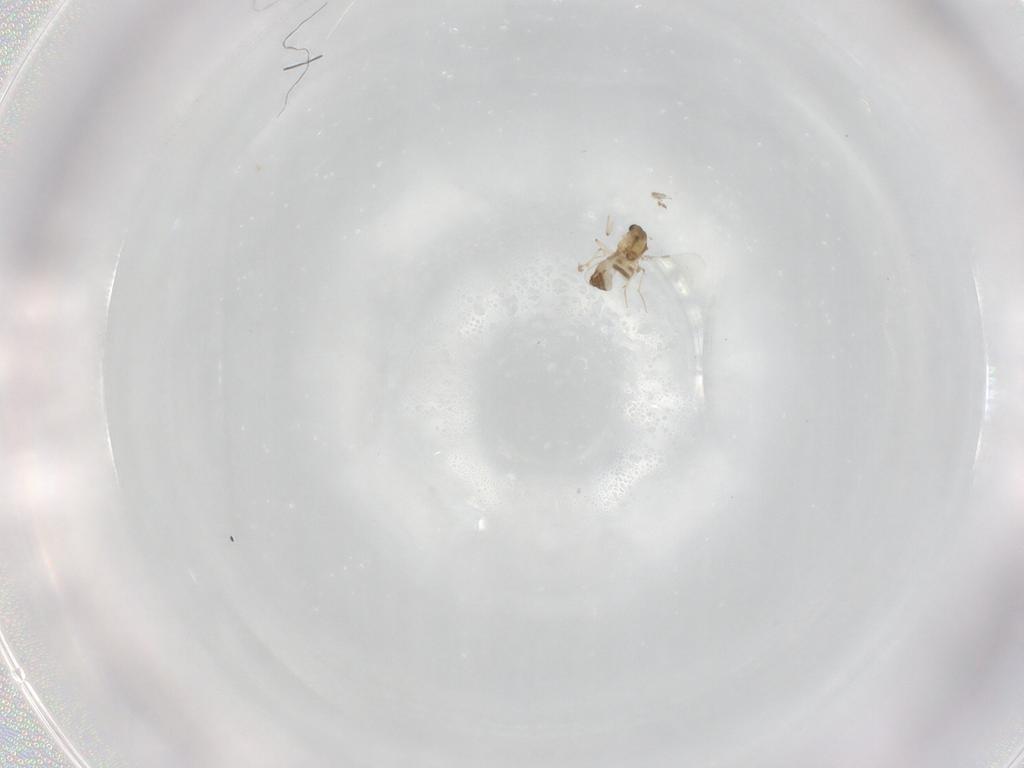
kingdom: Animalia
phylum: Arthropoda
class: Insecta
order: Diptera
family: Chironomidae
